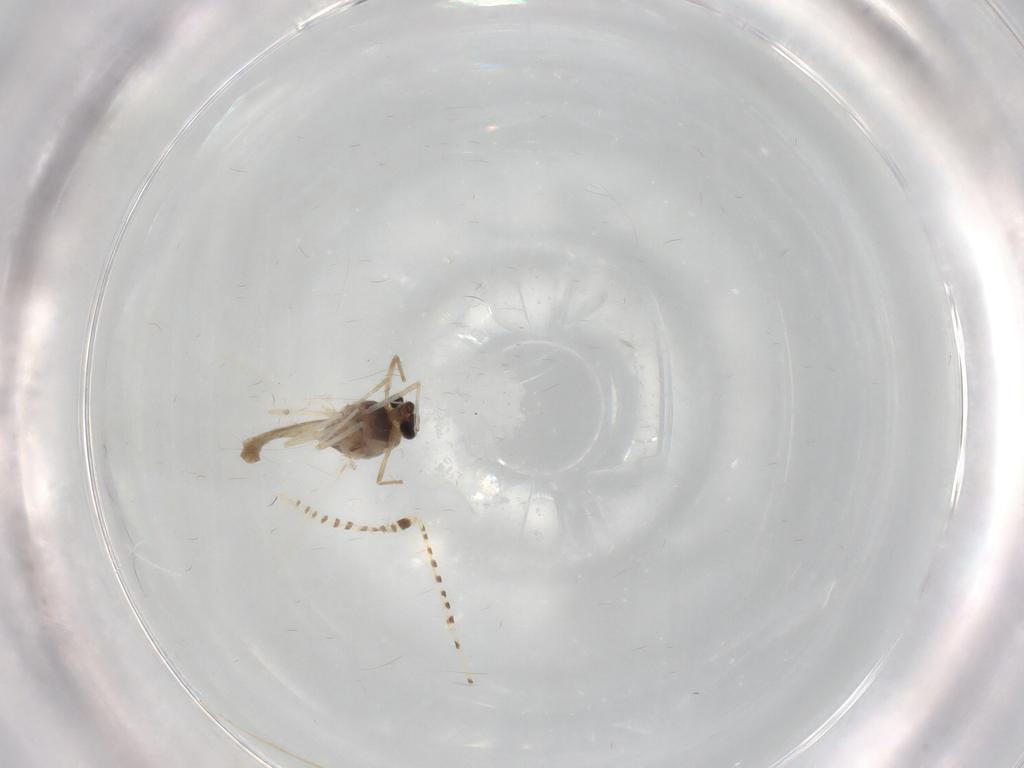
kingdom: Animalia
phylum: Arthropoda
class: Insecta
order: Diptera
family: Chironomidae
